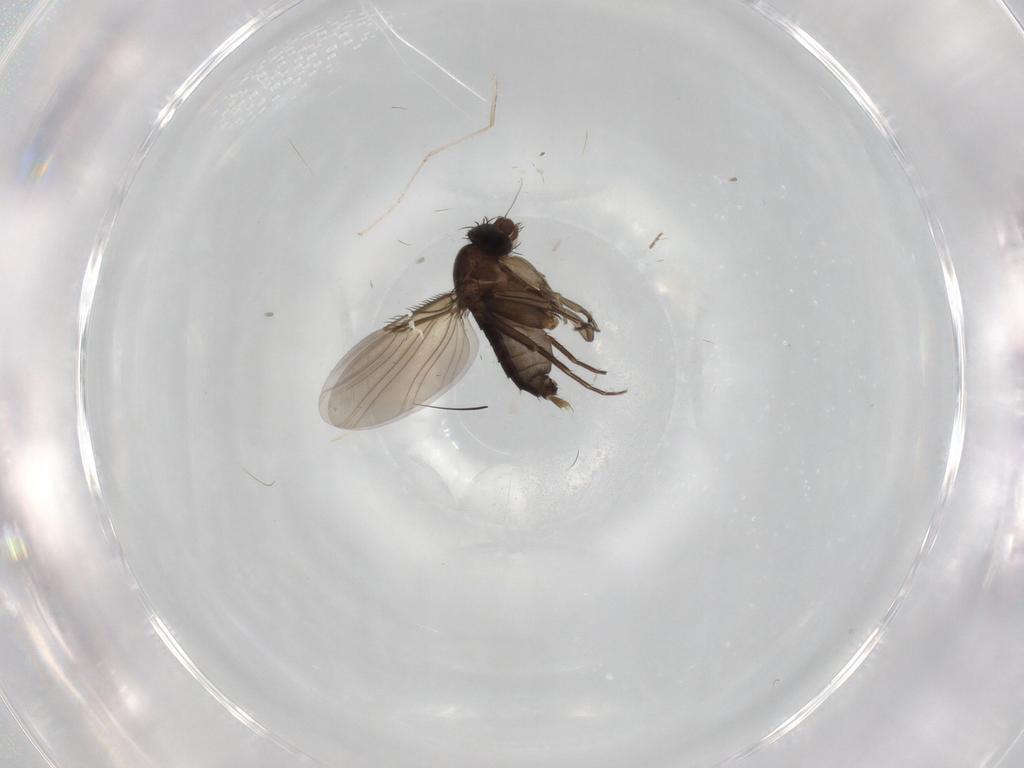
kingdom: Animalia
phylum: Arthropoda
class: Insecta
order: Diptera
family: Phoridae
